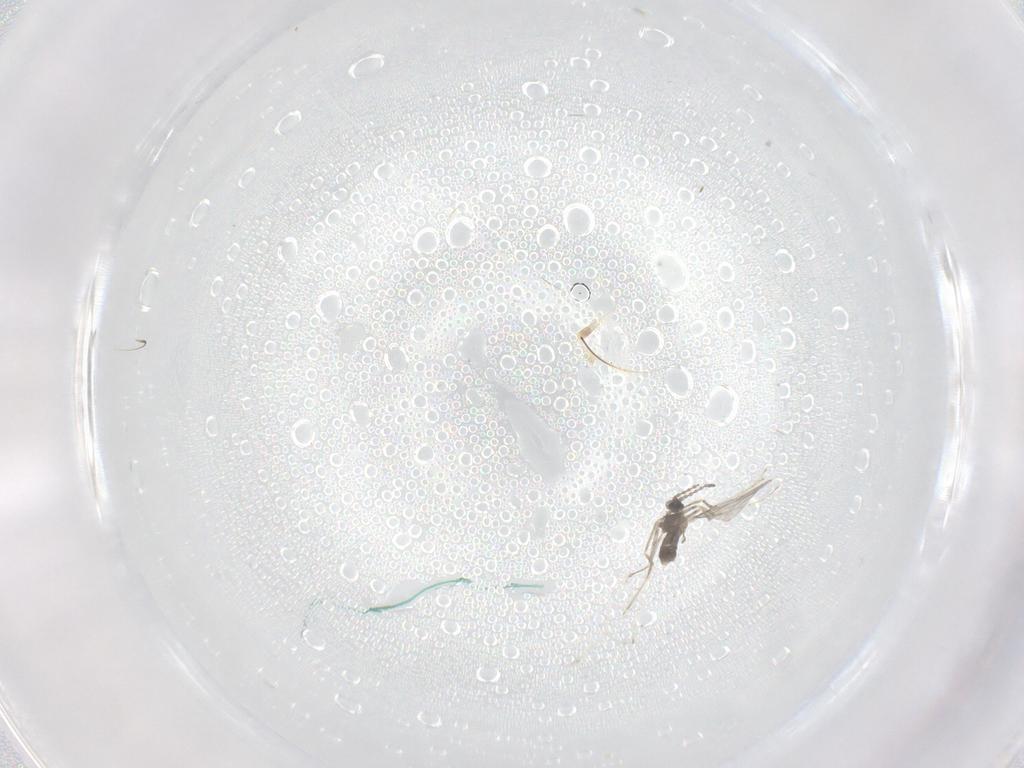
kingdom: Animalia
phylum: Arthropoda
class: Insecta
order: Diptera
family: Cecidomyiidae
